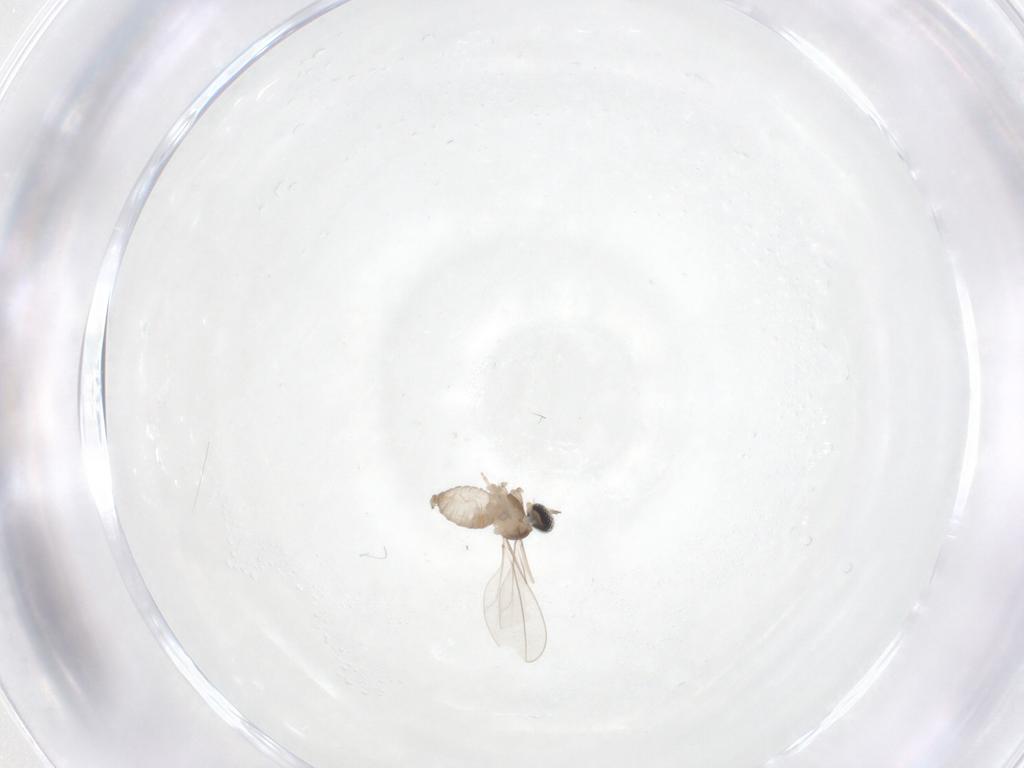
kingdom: Animalia
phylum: Arthropoda
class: Insecta
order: Diptera
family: Cecidomyiidae
